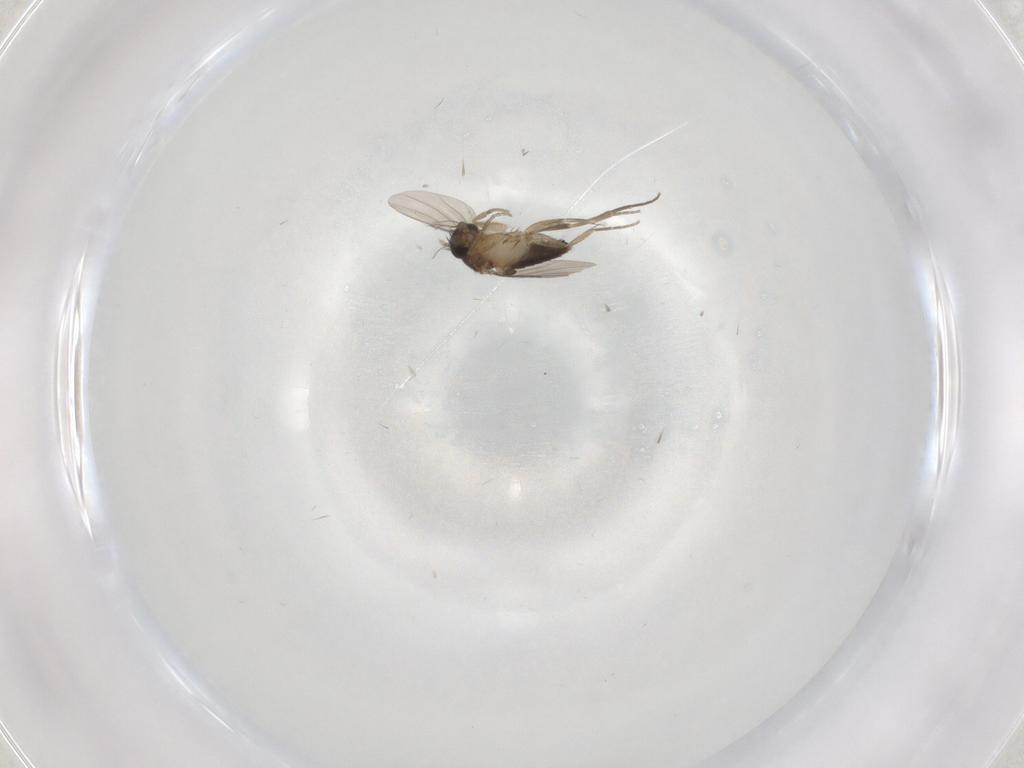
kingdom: Animalia
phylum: Arthropoda
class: Insecta
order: Diptera
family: Phoridae
